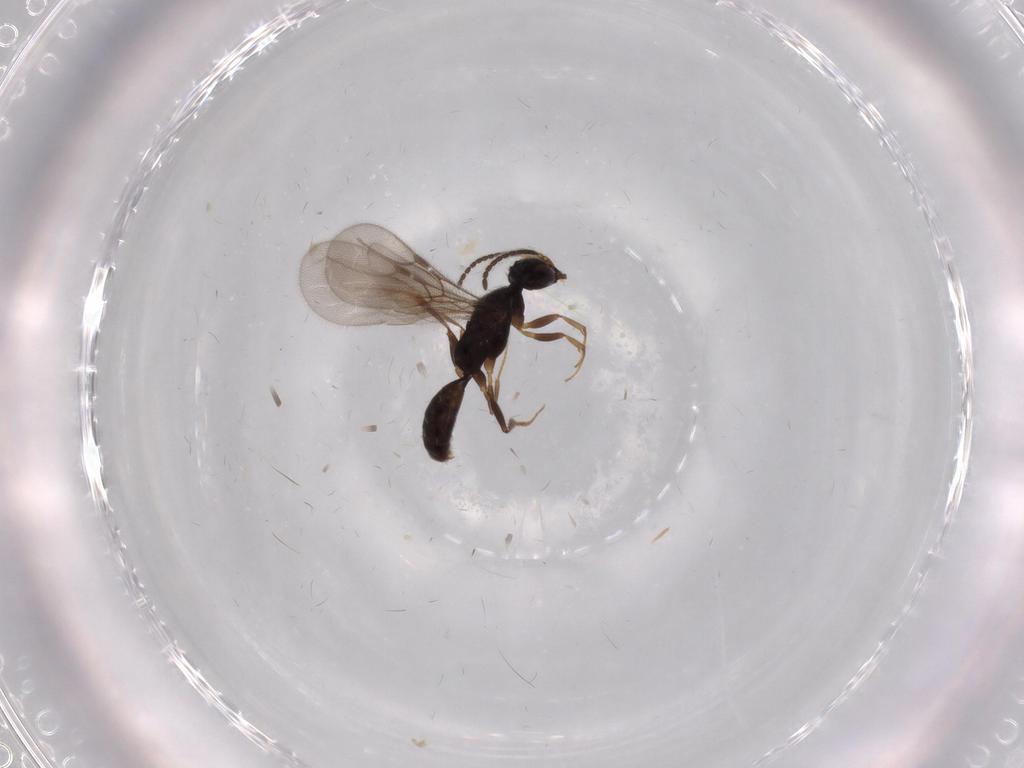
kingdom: Animalia
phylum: Arthropoda
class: Insecta
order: Hymenoptera
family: Bethylidae
